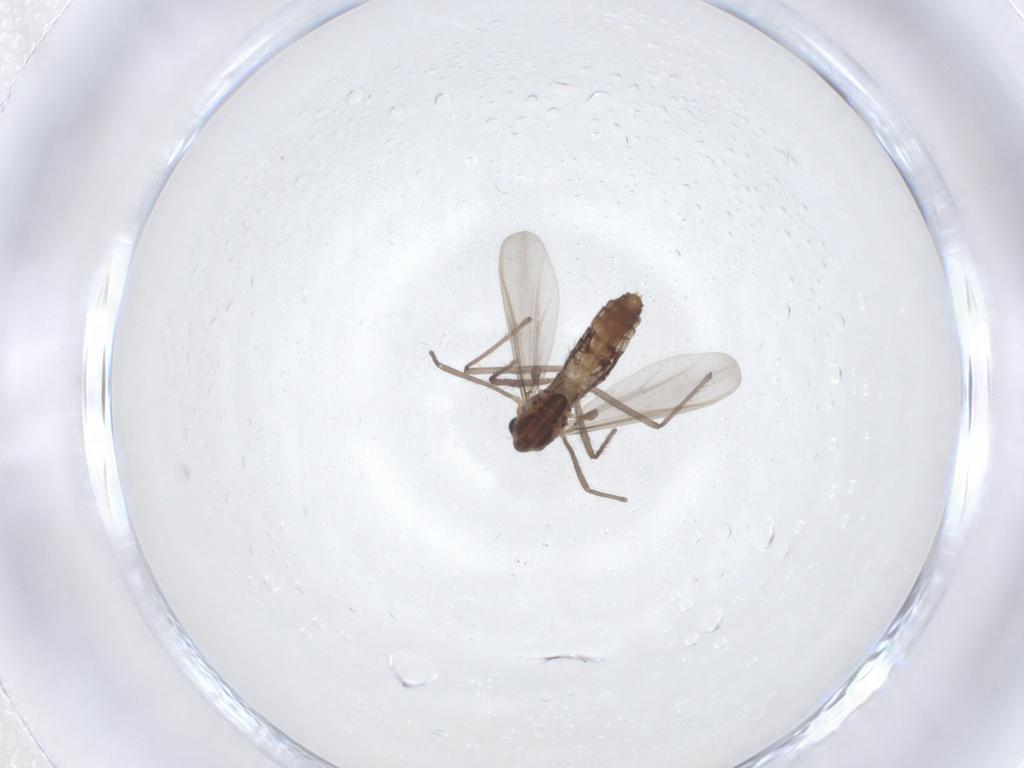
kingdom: Animalia
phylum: Arthropoda
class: Insecta
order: Diptera
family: Chironomidae
